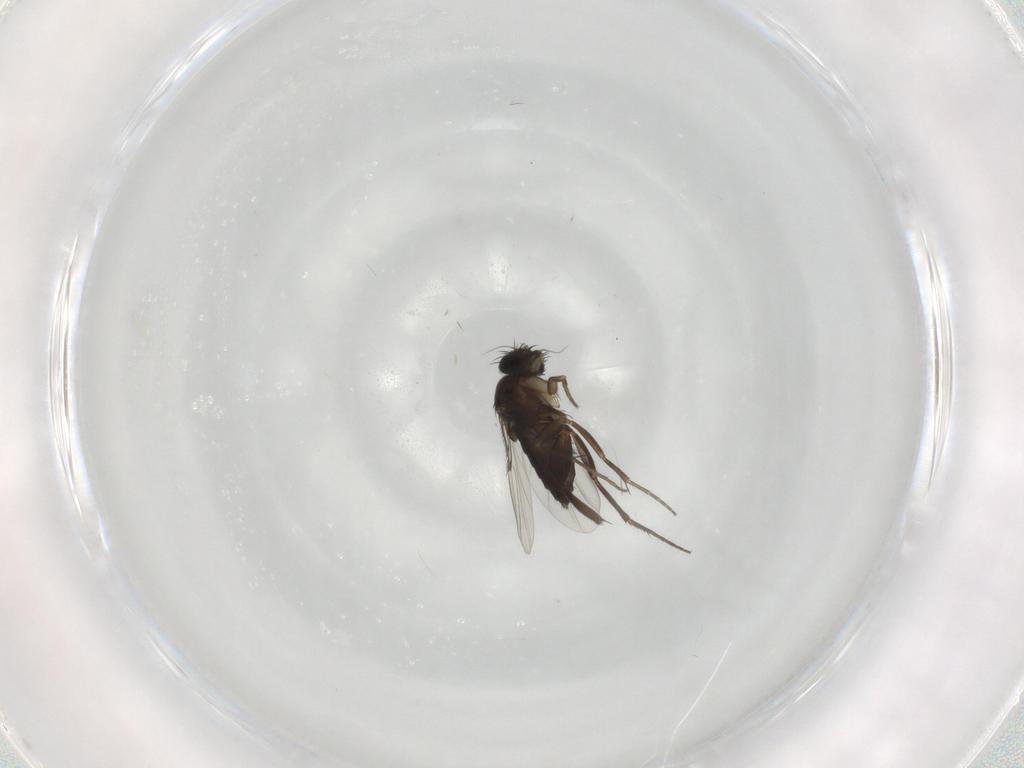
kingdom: Animalia
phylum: Arthropoda
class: Insecta
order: Diptera
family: Phoridae
